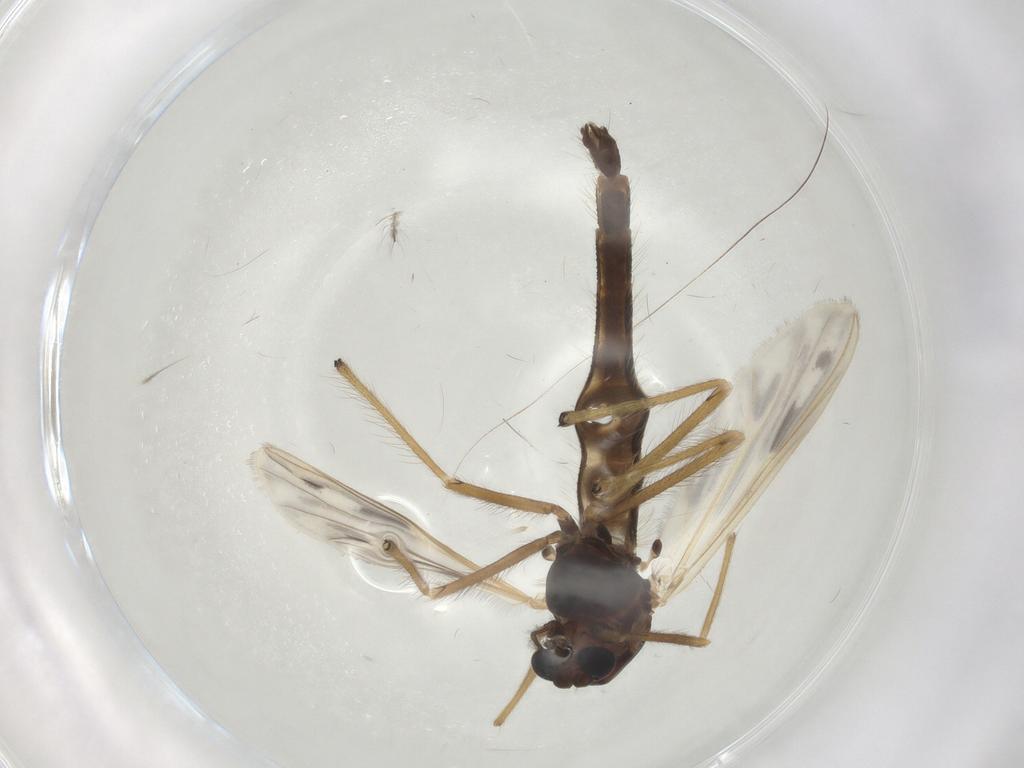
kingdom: Animalia
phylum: Arthropoda
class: Insecta
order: Diptera
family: Chironomidae
